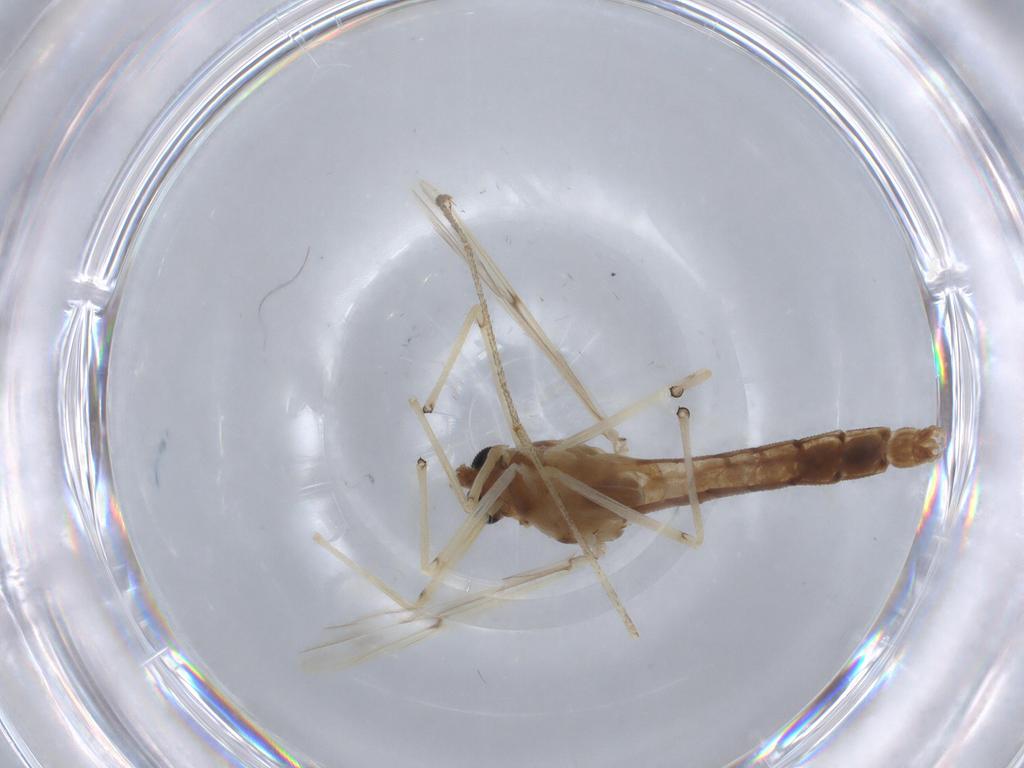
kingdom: Animalia
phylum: Arthropoda
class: Insecta
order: Diptera
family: Chironomidae
